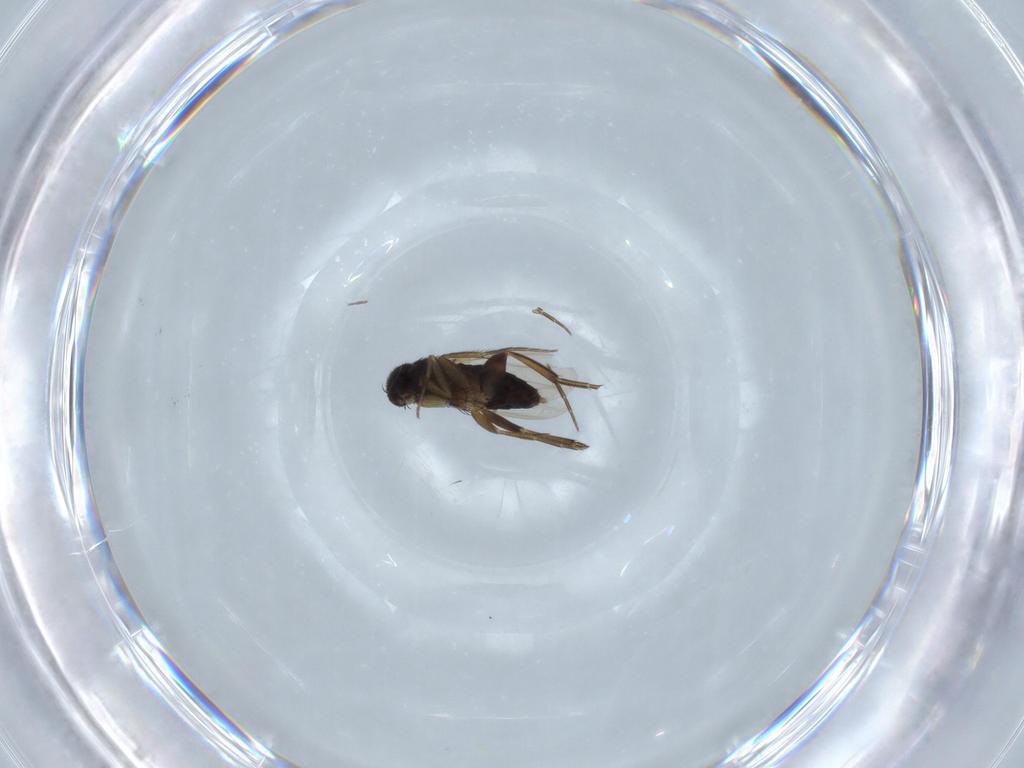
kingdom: Animalia
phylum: Arthropoda
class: Insecta
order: Diptera
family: Phoridae
